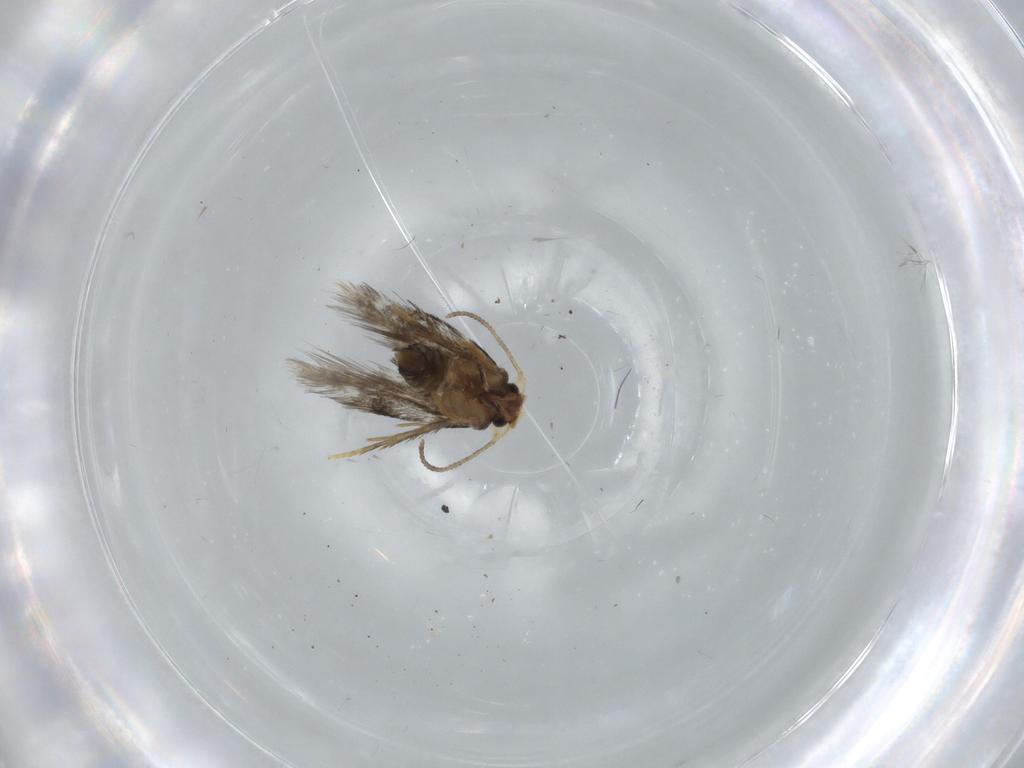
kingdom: Animalia
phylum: Arthropoda
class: Insecta
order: Lepidoptera
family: Nepticulidae
